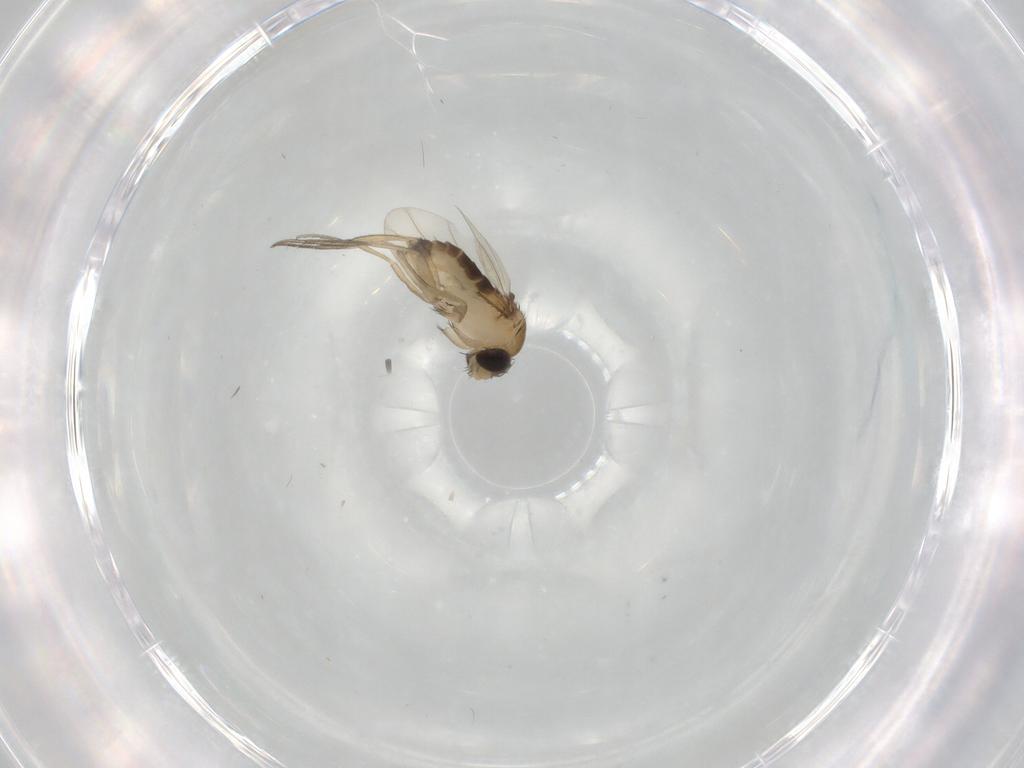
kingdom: Animalia
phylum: Arthropoda
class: Insecta
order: Diptera
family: Phoridae
